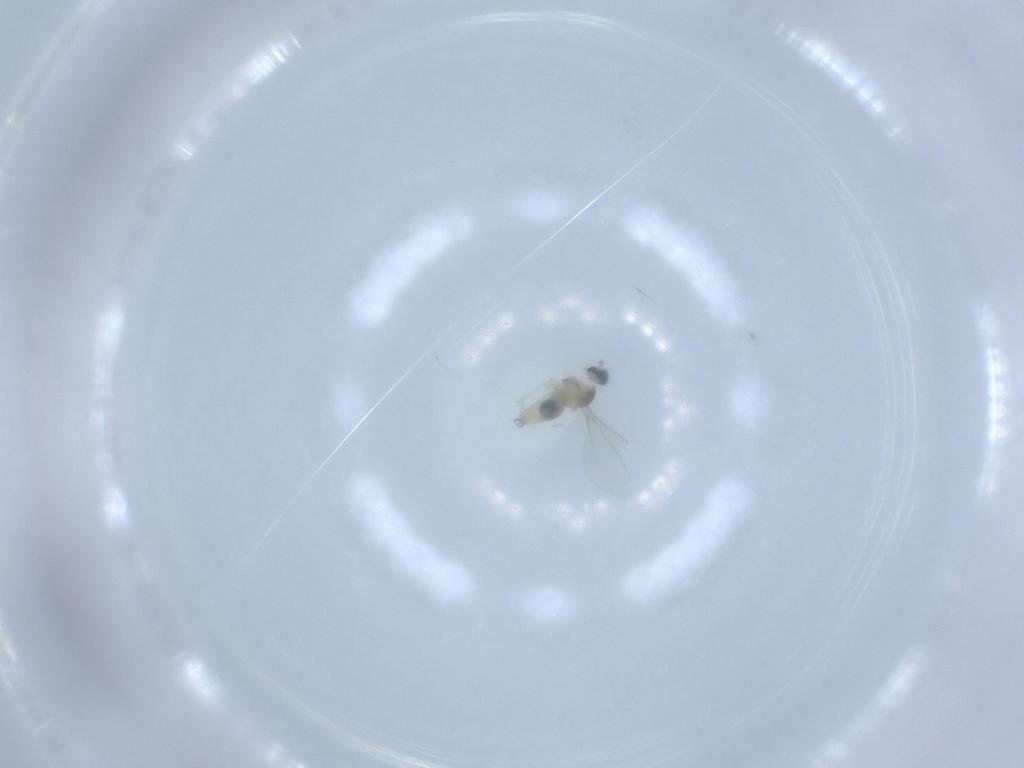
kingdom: Animalia
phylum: Arthropoda
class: Insecta
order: Diptera
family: Cecidomyiidae
